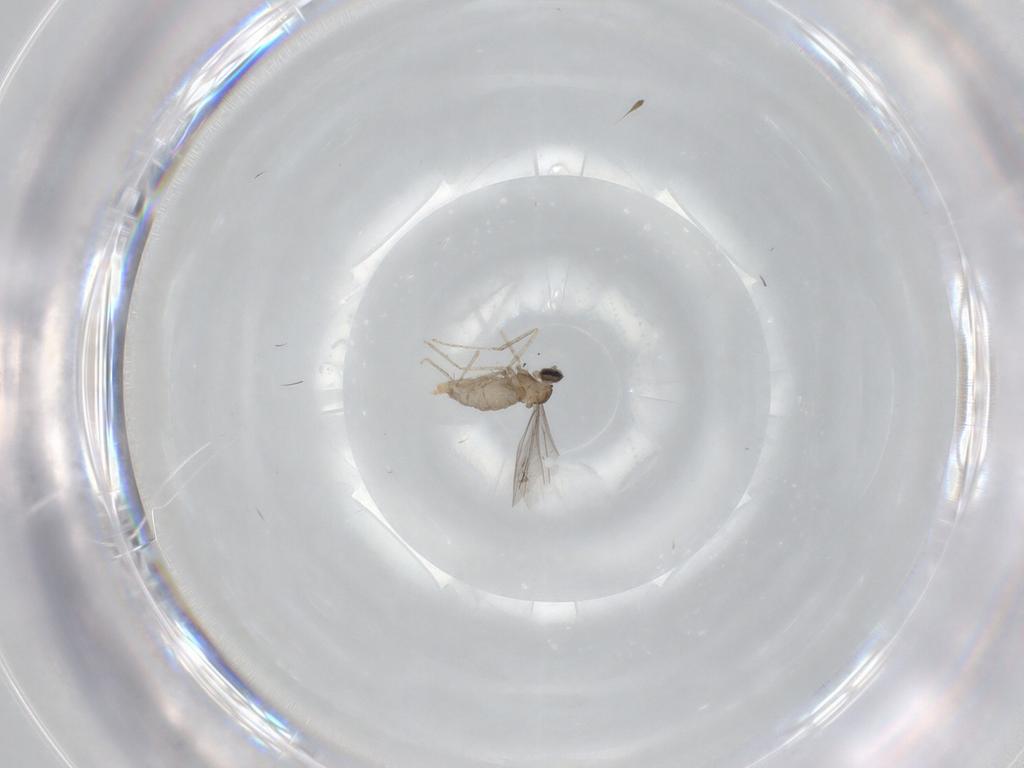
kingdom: Animalia
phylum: Arthropoda
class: Insecta
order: Diptera
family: Cecidomyiidae
